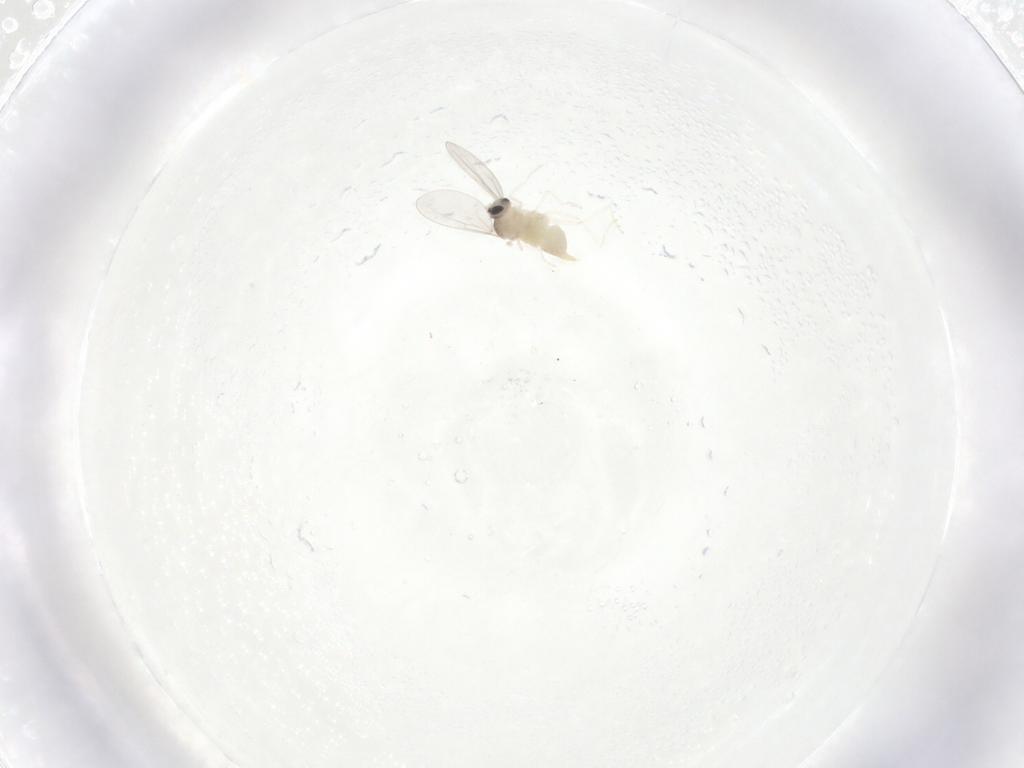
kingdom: Animalia
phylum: Arthropoda
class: Insecta
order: Diptera
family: Cecidomyiidae
